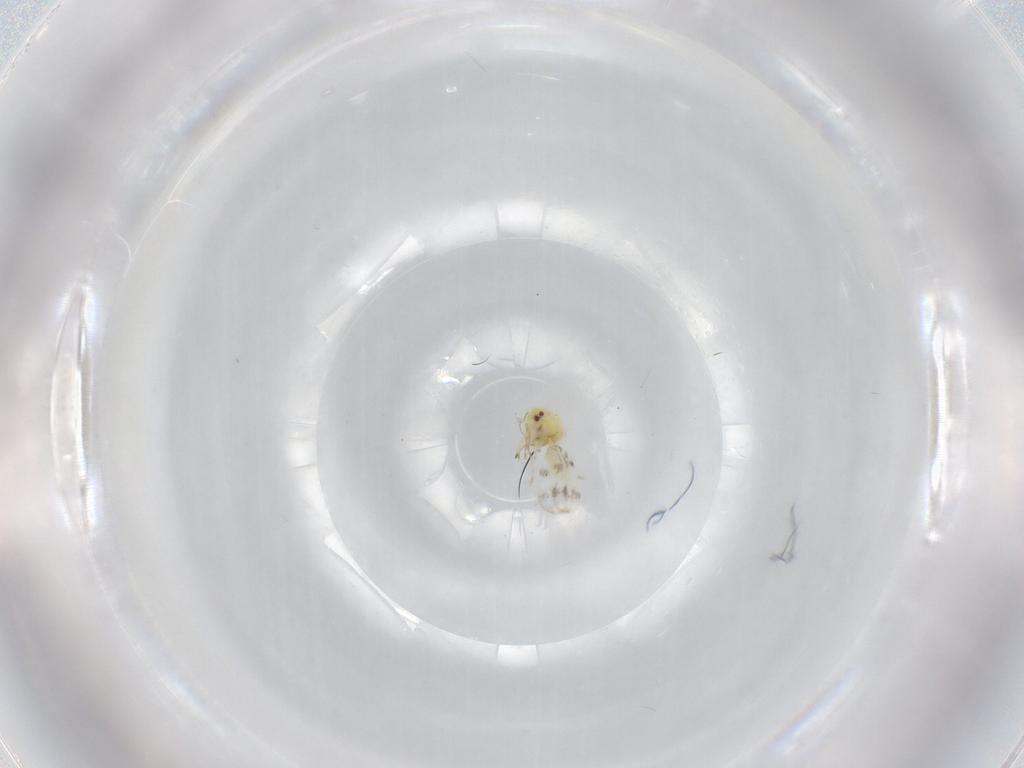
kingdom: Animalia
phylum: Arthropoda
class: Insecta
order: Hemiptera
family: Aleyrodidae
